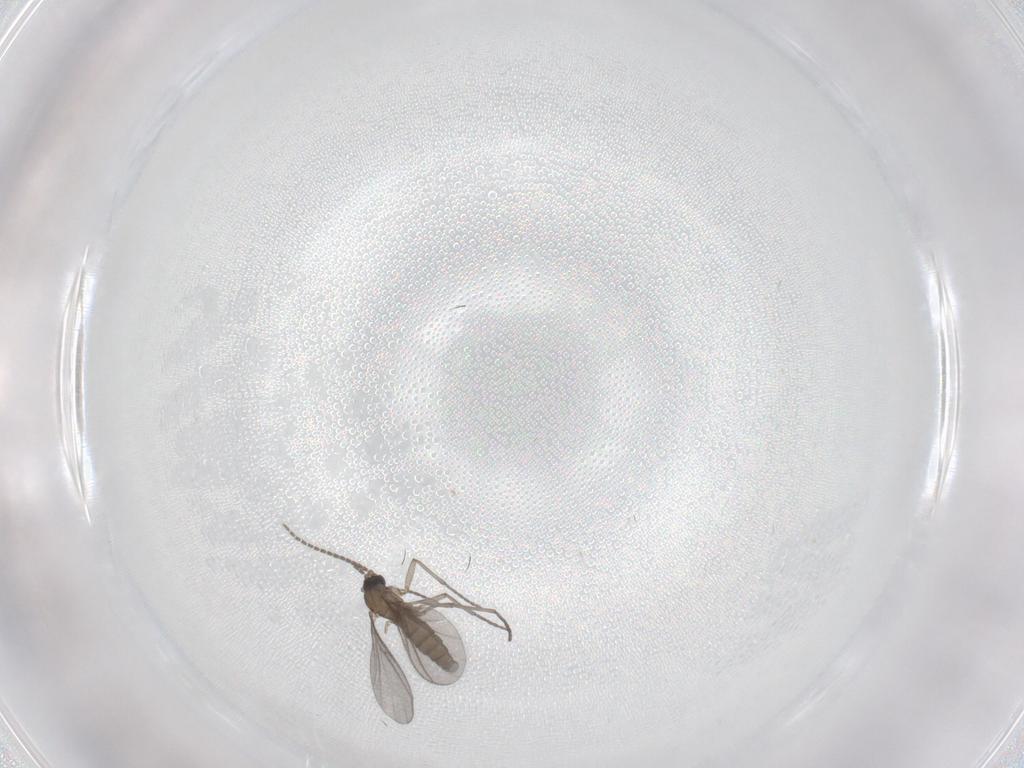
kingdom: Animalia
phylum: Arthropoda
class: Insecta
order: Diptera
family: Sciaridae
